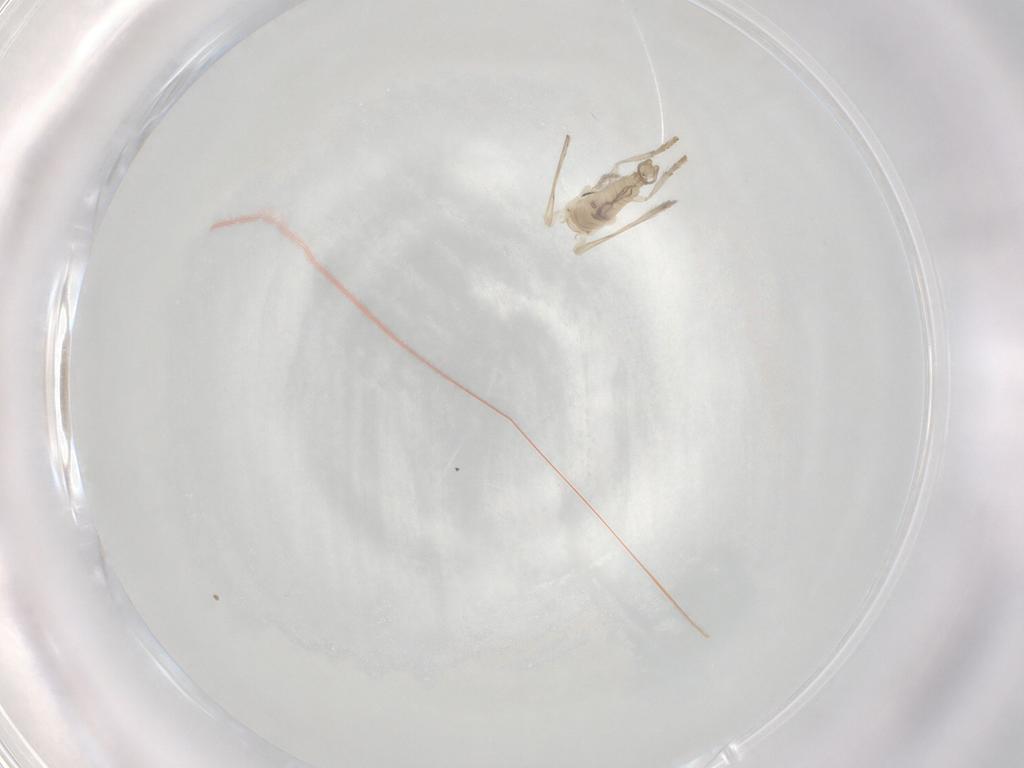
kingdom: Animalia
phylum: Arthropoda
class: Insecta
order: Diptera
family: Psychodidae
